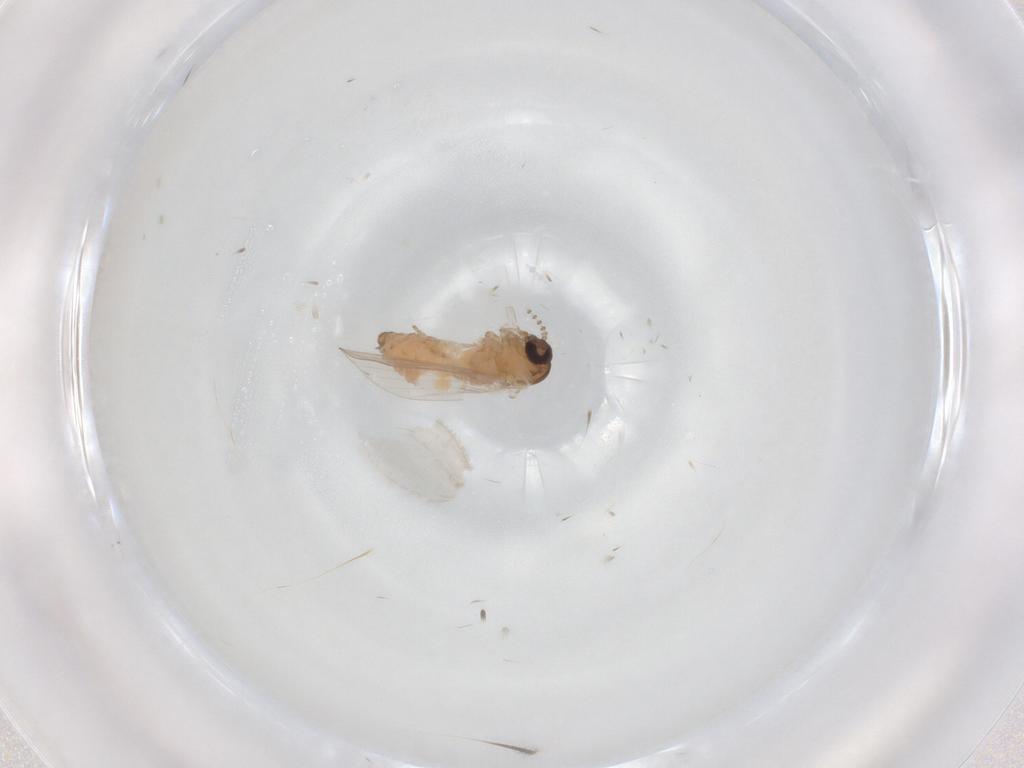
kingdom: Animalia
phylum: Arthropoda
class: Insecta
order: Diptera
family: Psychodidae
